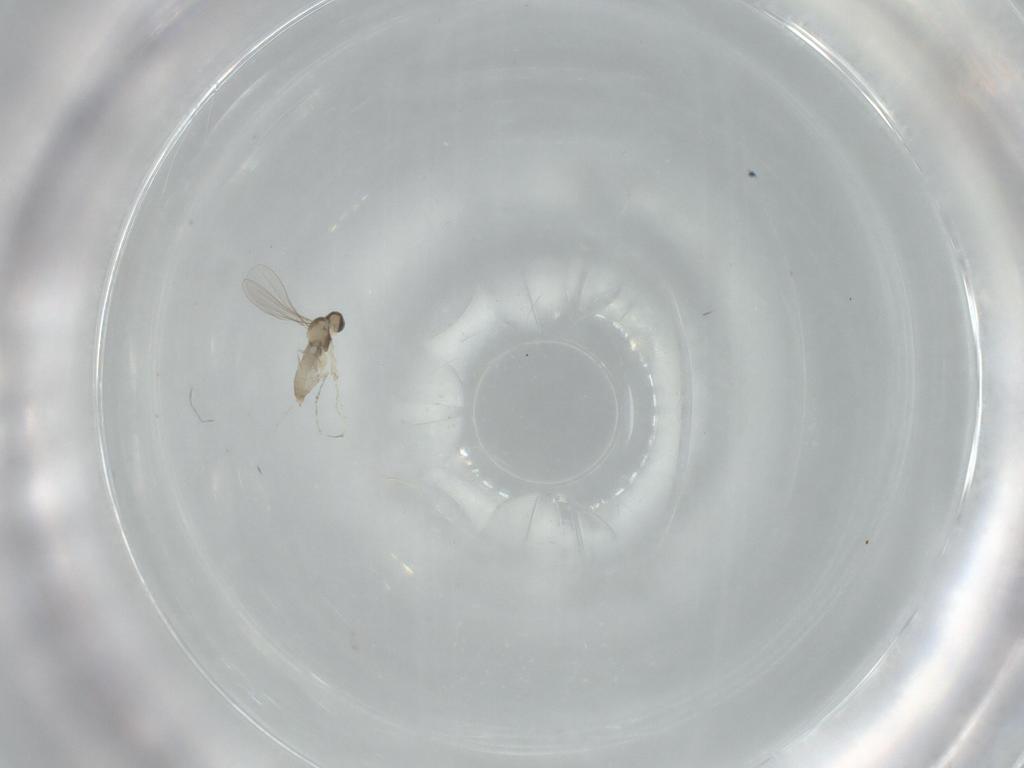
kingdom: Animalia
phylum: Arthropoda
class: Insecta
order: Diptera
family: Cecidomyiidae
